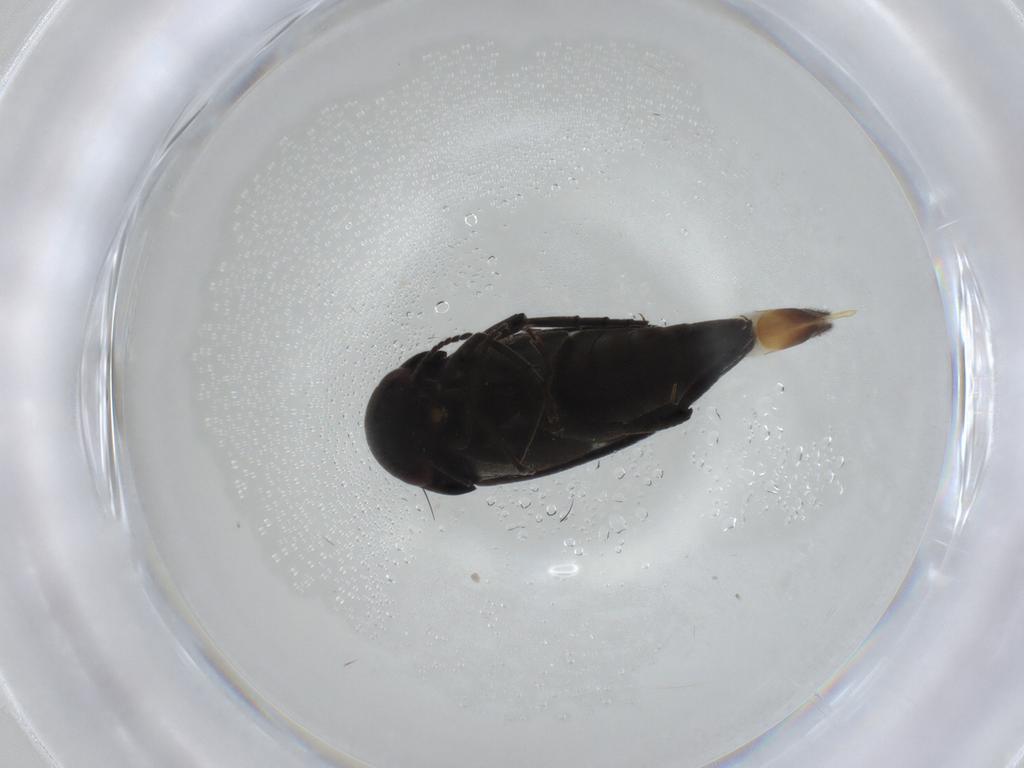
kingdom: Animalia
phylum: Arthropoda
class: Insecta
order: Coleoptera
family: Mordellidae
